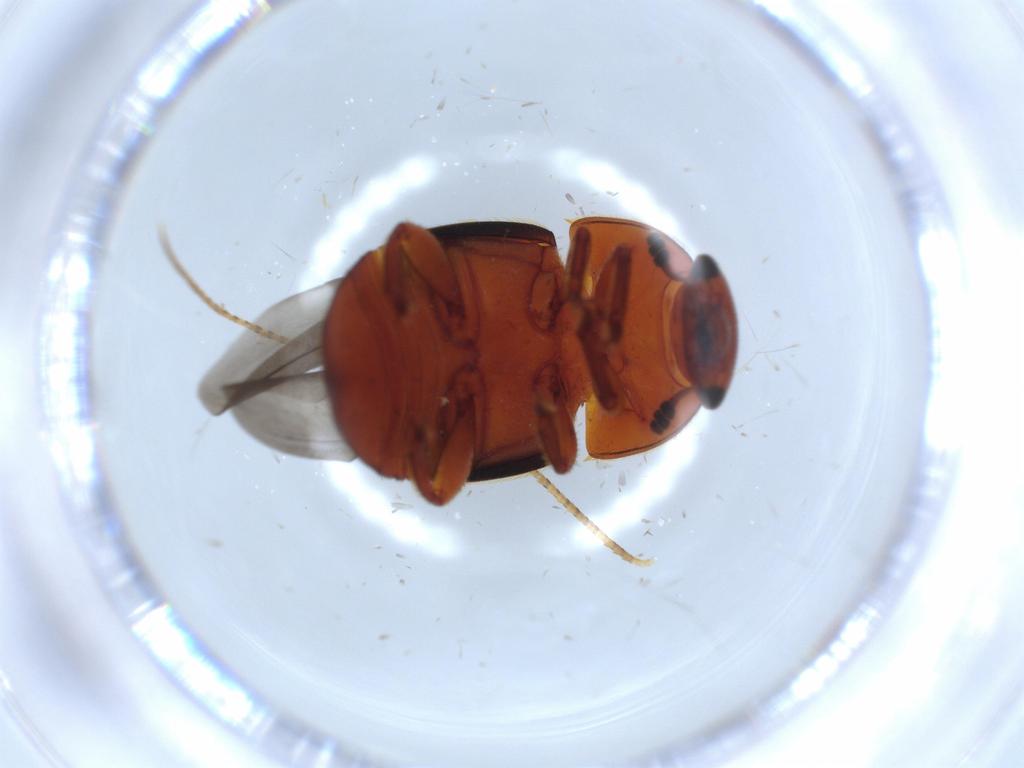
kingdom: Animalia
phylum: Arthropoda
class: Insecta
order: Coleoptera
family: Nitidulidae
